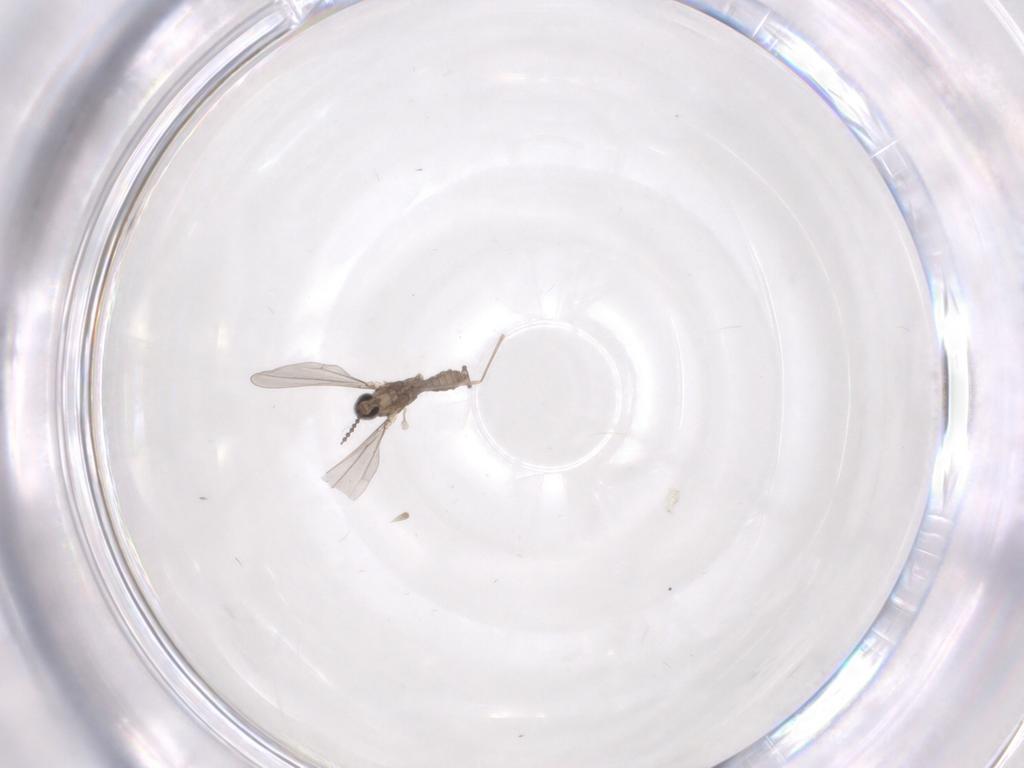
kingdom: Animalia
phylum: Arthropoda
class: Insecta
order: Diptera
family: Cecidomyiidae
